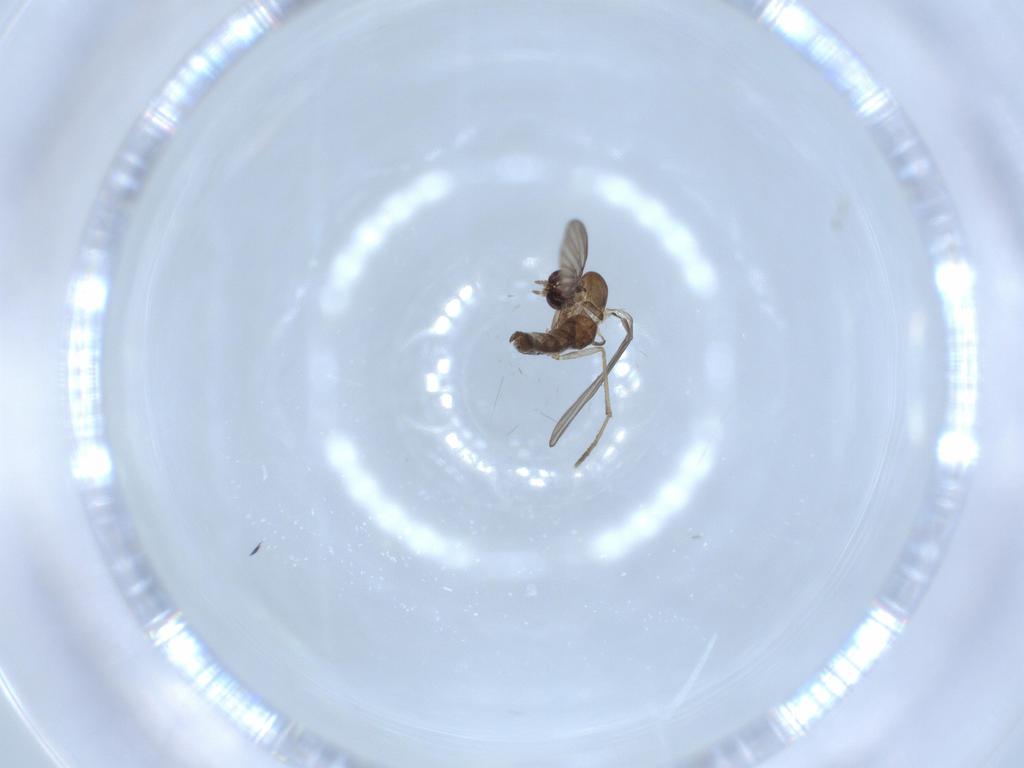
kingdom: Animalia
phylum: Arthropoda
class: Insecta
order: Diptera
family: Psychodidae
